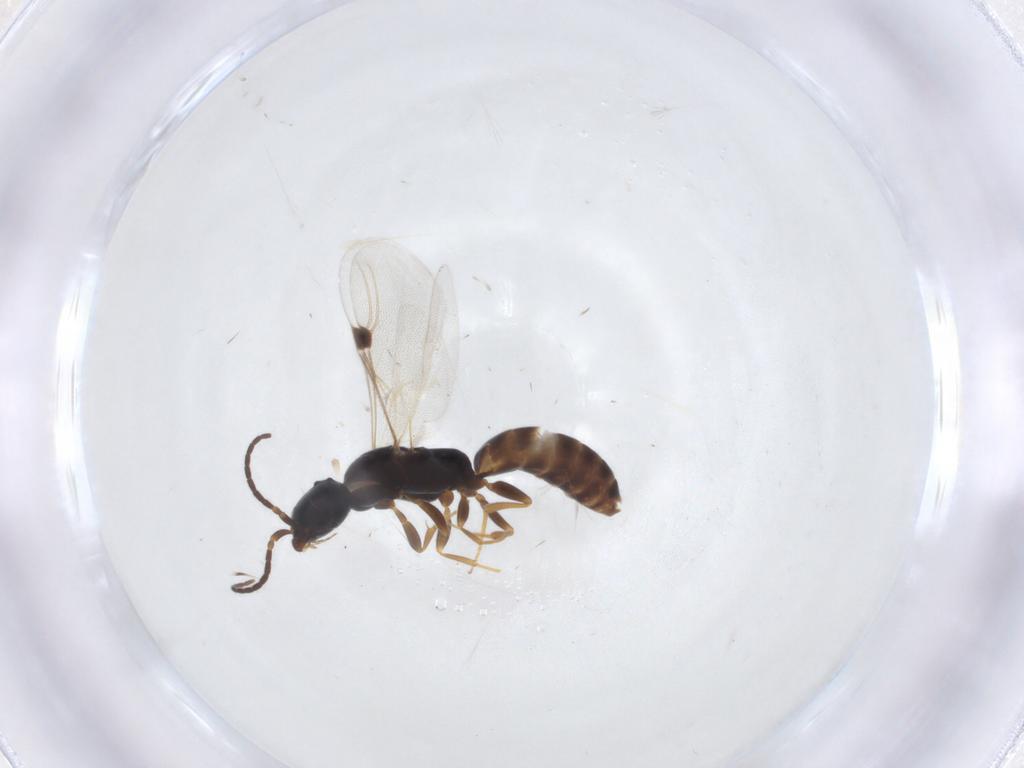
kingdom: Animalia
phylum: Arthropoda
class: Insecta
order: Hymenoptera
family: Bethylidae
